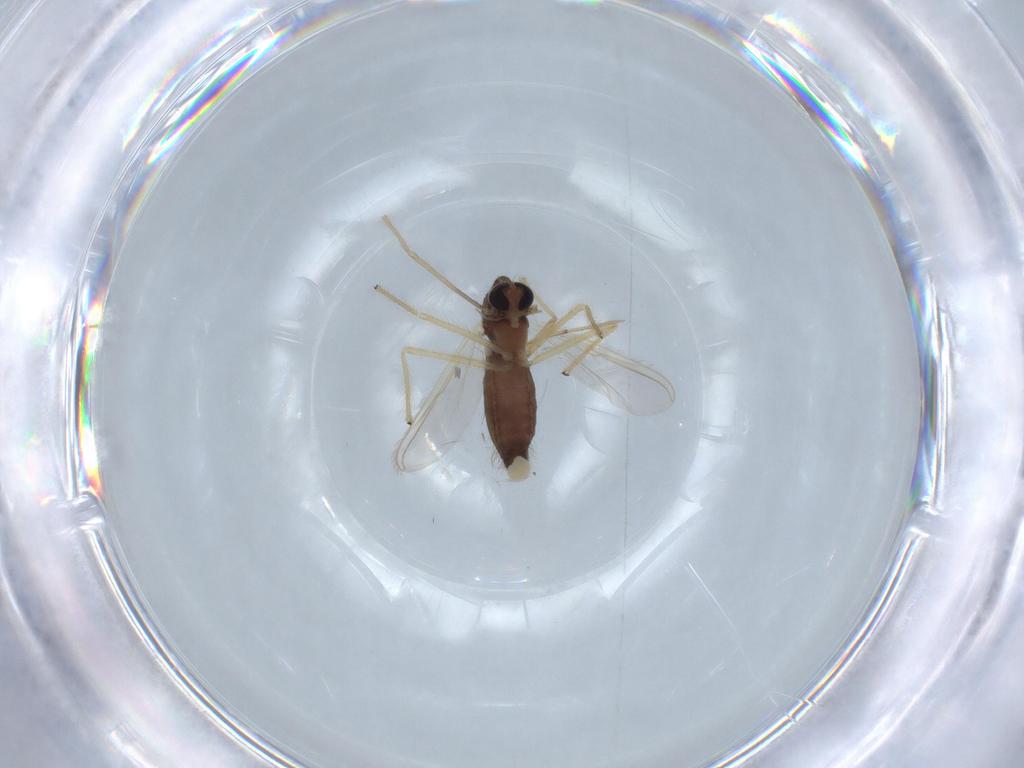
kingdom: Animalia
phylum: Arthropoda
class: Insecta
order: Diptera
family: Chironomidae
